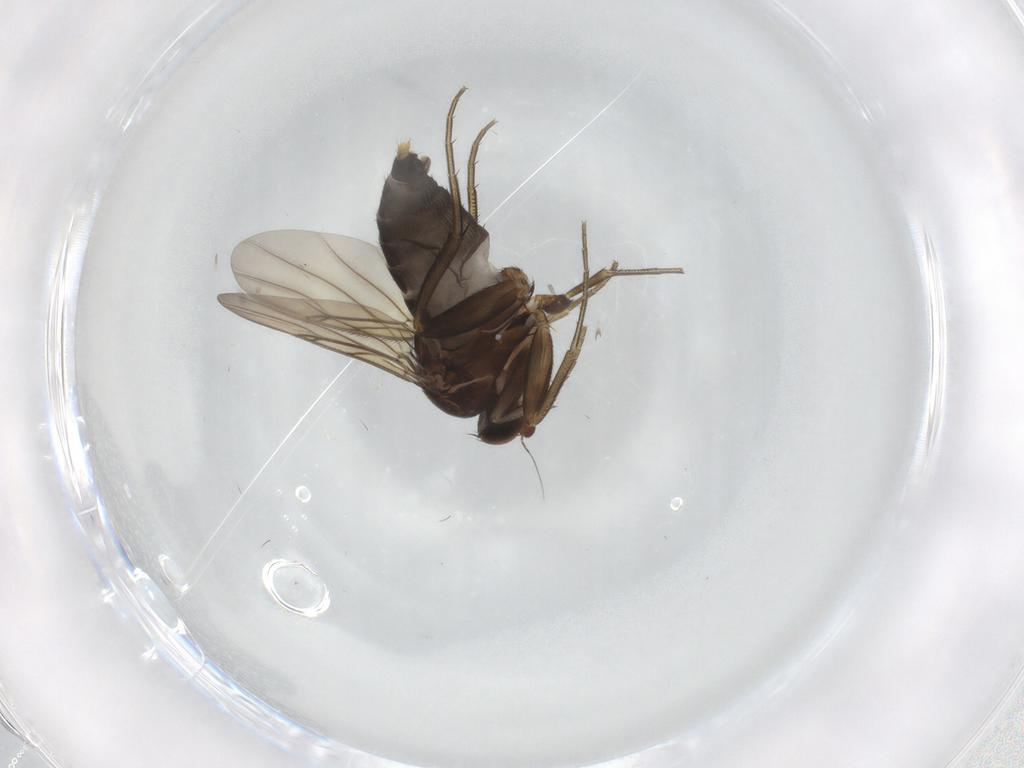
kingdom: Animalia
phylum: Arthropoda
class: Insecta
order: Diptera
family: Phoridae
